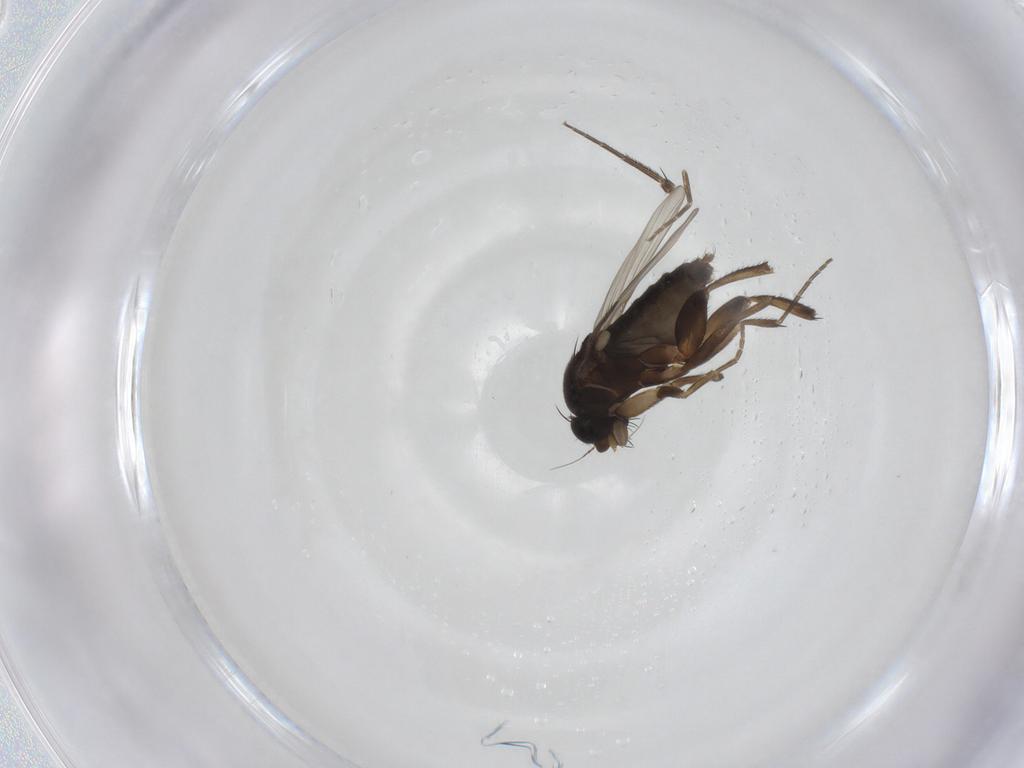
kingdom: Animalia
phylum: Arthropoda
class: Insecta
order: Diptera
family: Phoridae
